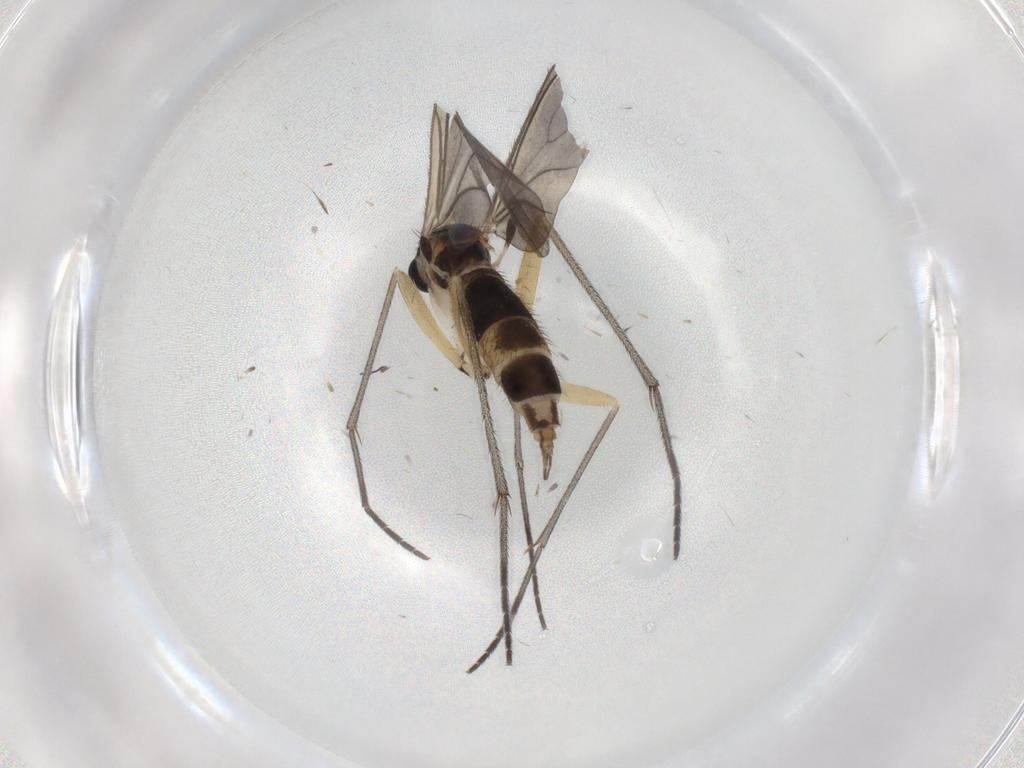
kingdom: Animalia
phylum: Arthropoda
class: Insecta
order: Diptera
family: Sciaridae
